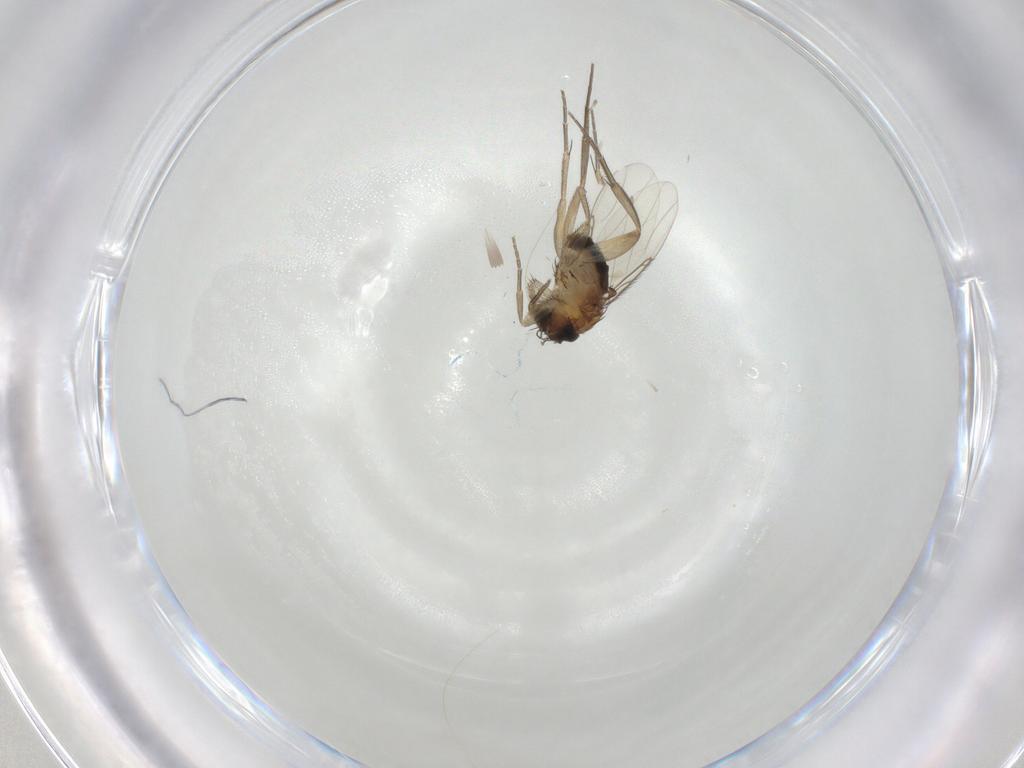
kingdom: Animalia
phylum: Arthropoda
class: Insecta
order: Diptera
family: Phoridae
